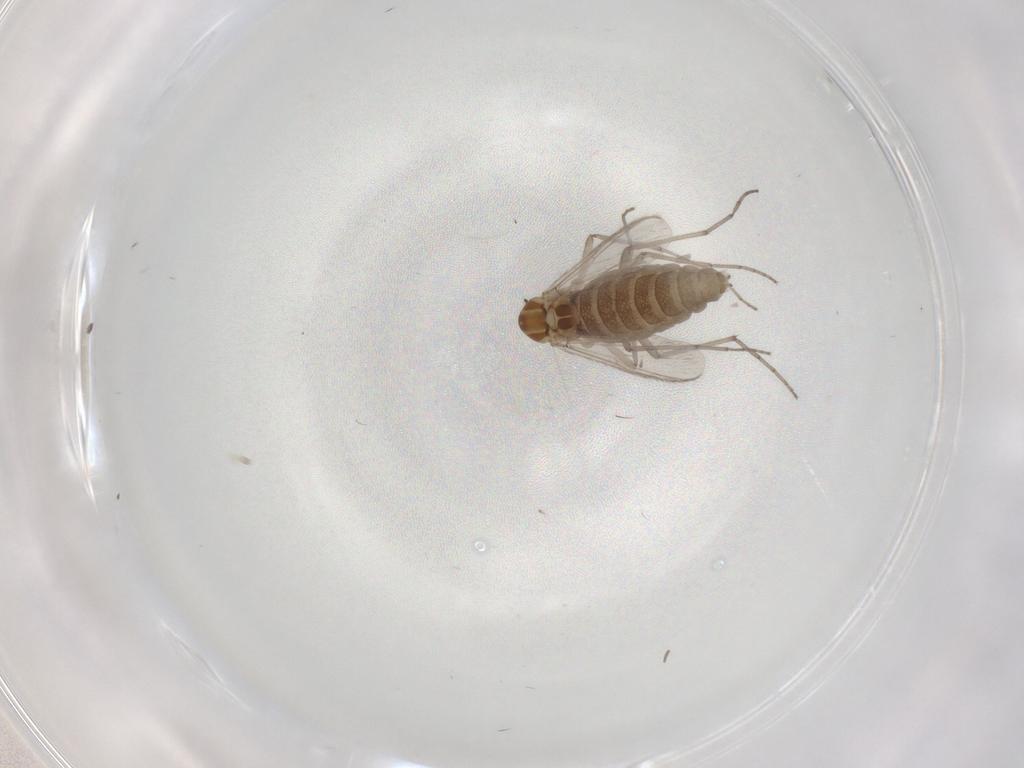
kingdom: Animalia
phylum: Arthropoda
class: Insecta
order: Diptera
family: Chironomidae
